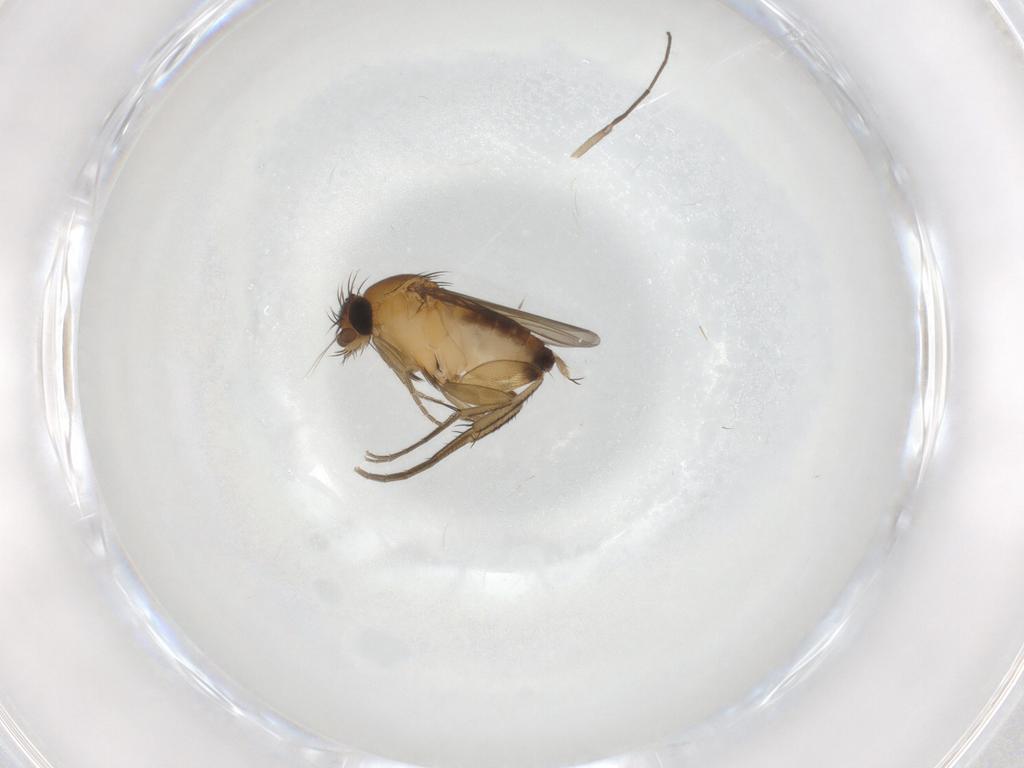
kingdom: Animalia
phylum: Arthropoda
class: Insecta
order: Diptera
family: Phoridae
